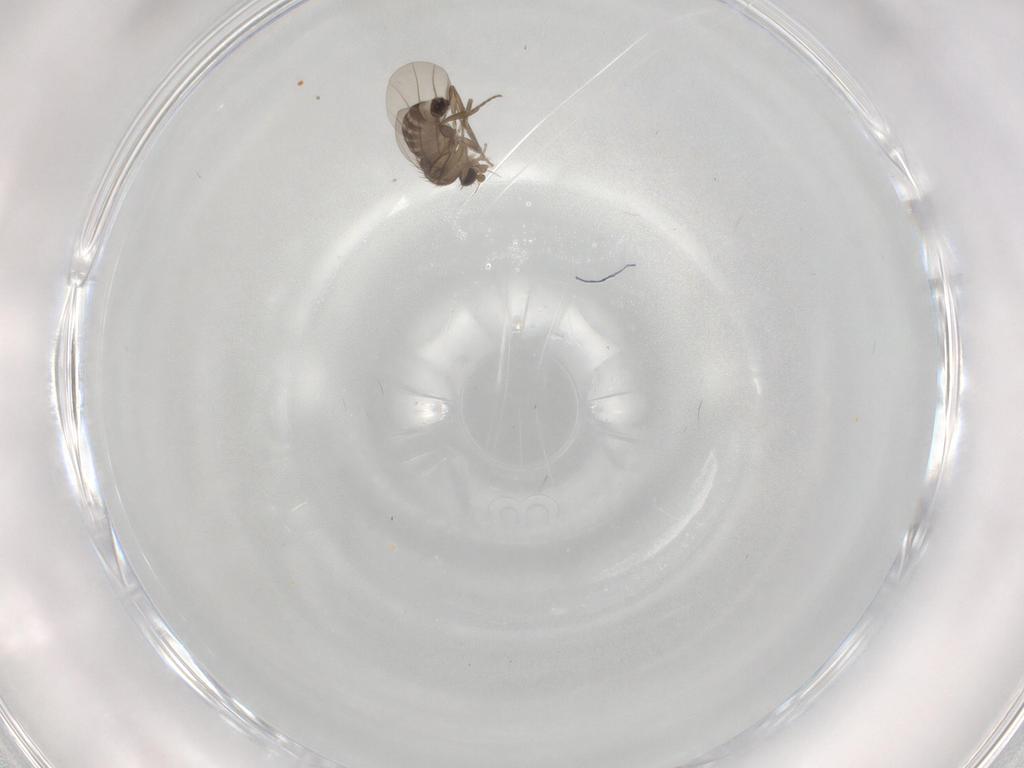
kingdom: Animalia
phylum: Arthropoda
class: Insecta
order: Diptera
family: Phoridae
